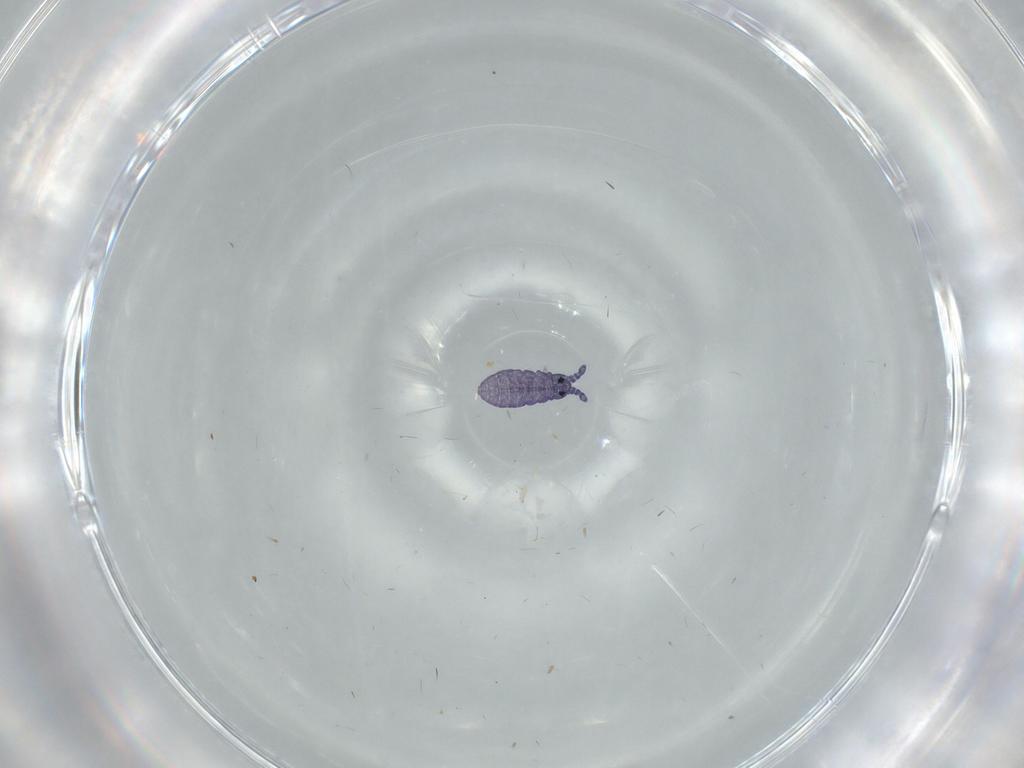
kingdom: Animalia
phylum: Arthropoda
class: Collembola
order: Poduromorpha
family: Neanuridae
